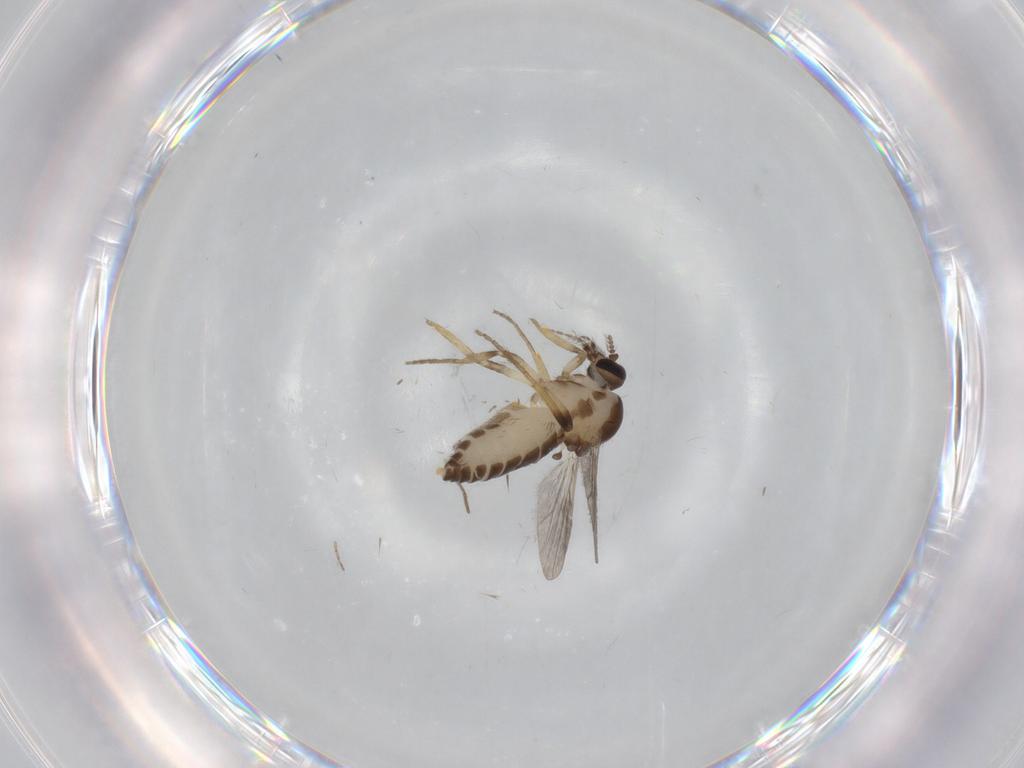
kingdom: Animalia
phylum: Arthropoda
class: Insecta
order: Diptera
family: Ceratopogonidae
